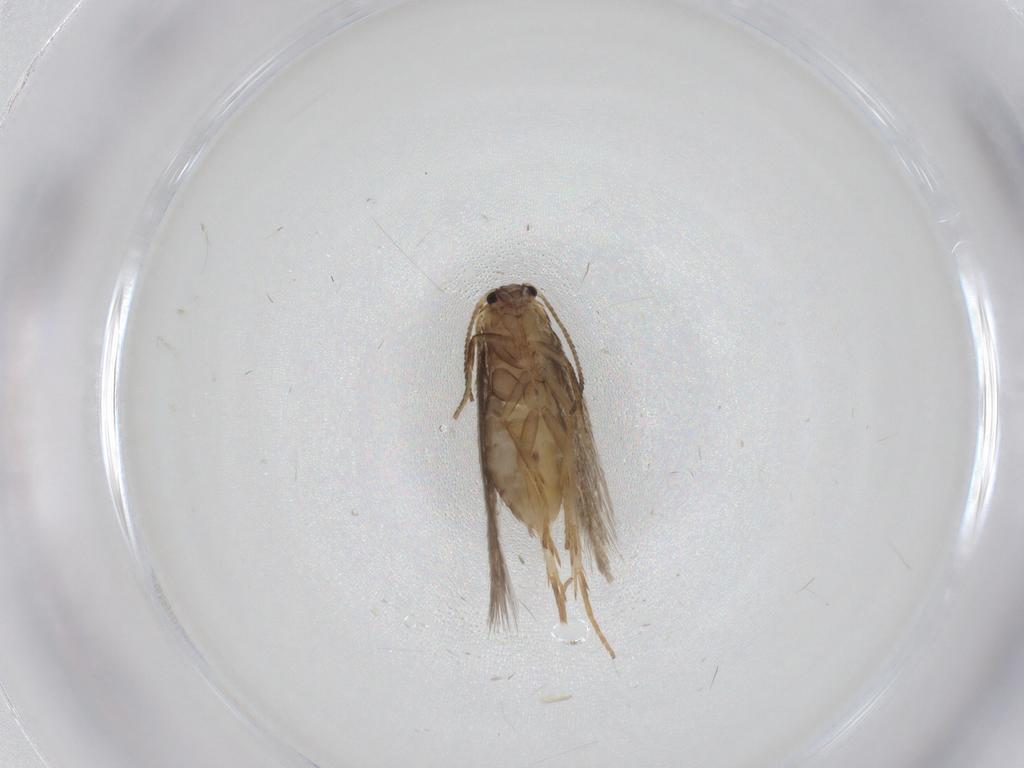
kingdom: Animalia
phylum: Arthropoda
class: Insecta
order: Lepidoptera
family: Nepticulidae
